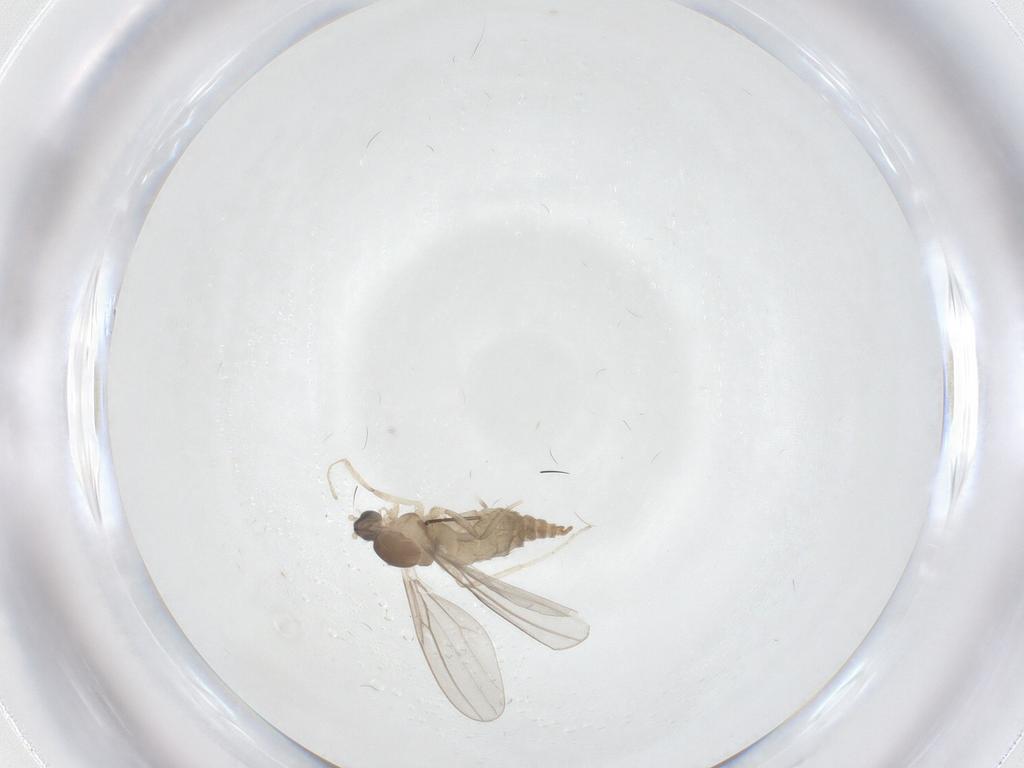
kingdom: Animalia
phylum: Arthropoda
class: Insecta
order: Diptera
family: Cecidomyiidae
